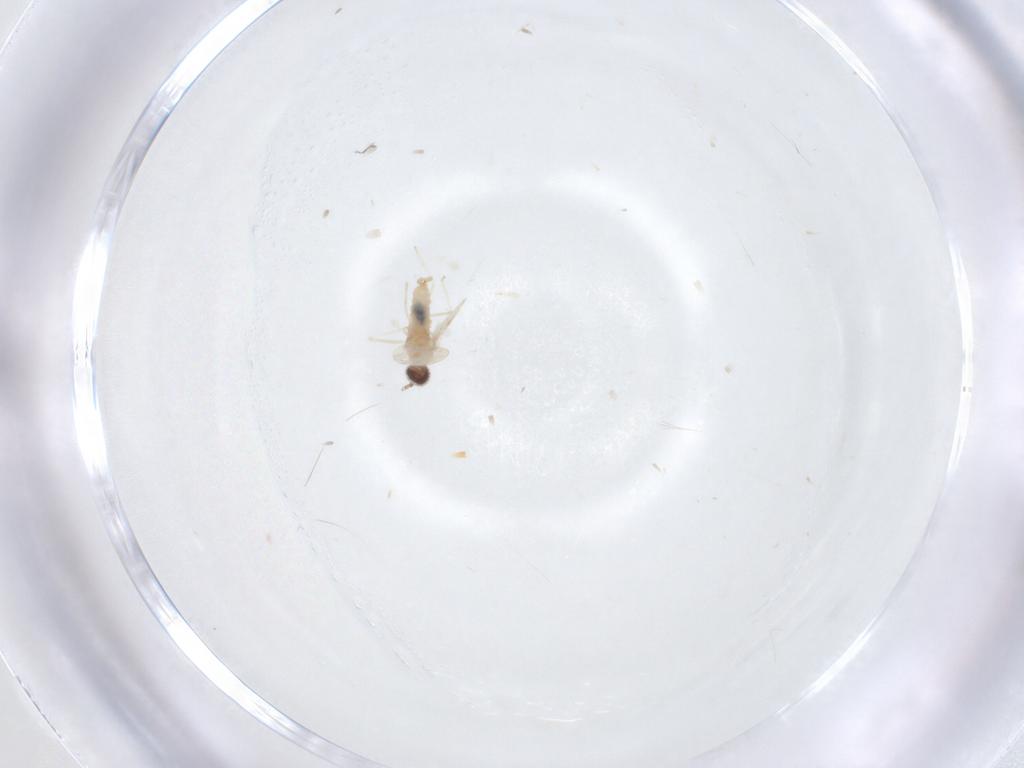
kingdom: Animalia
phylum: Arthropoda
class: Insecta
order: Diptera
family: Cecidomyiidae
